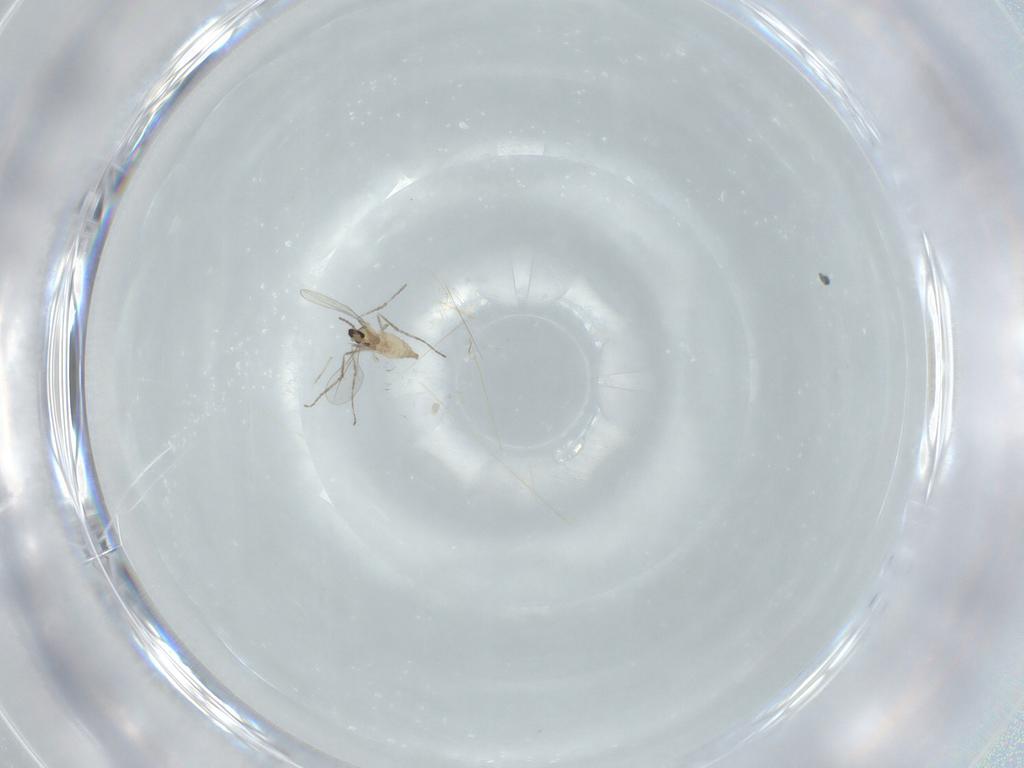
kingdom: Animalia
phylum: Arthropoda
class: Insecta
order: Diptera
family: Cecidomyiidae
